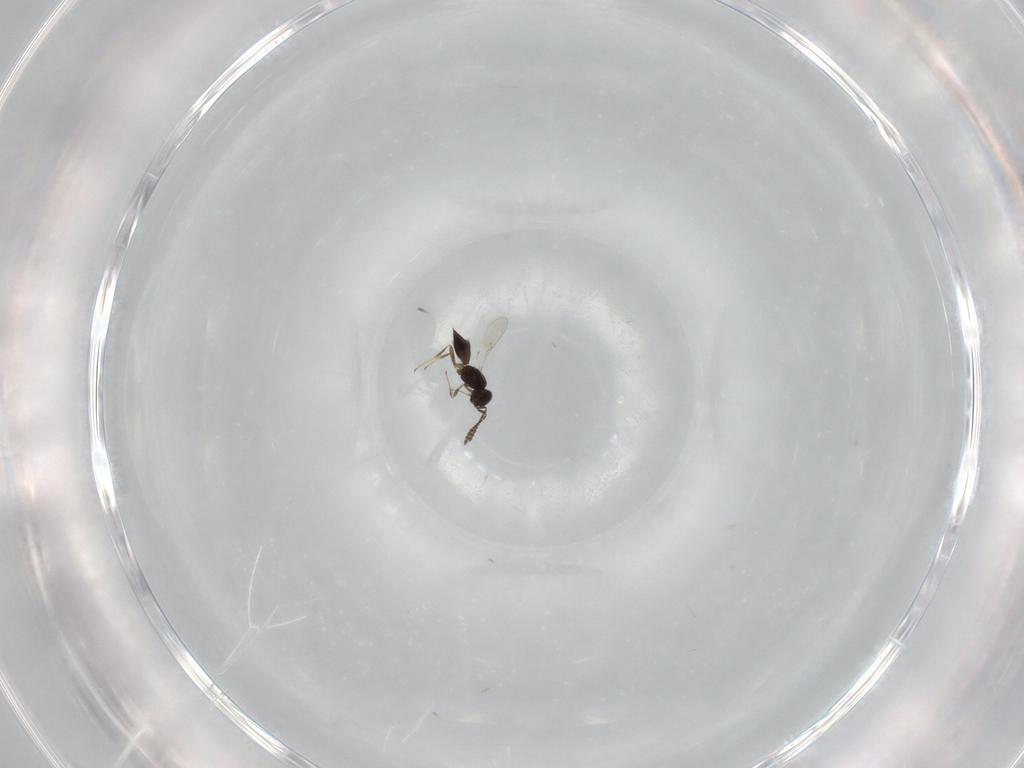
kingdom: Animalia
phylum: Arthropoda
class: Insecta
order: Hymenoptera
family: Scelionidae
